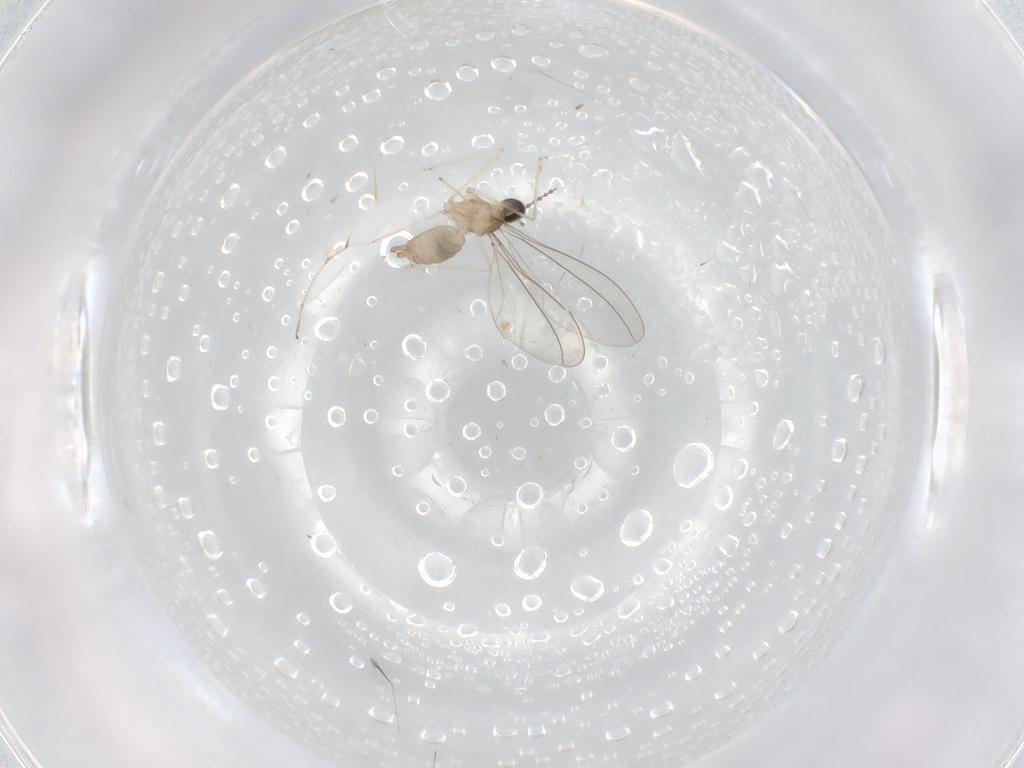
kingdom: Animalia
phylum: Arthropoda
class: Insecta
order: Diptera
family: Cecidomyiidae
